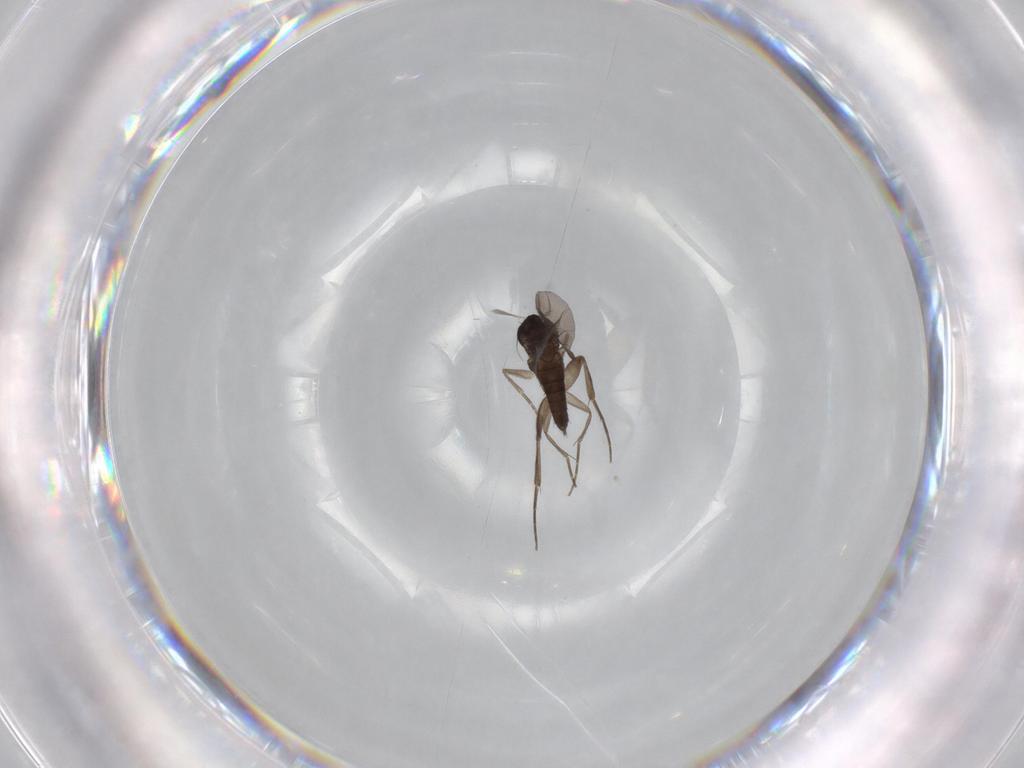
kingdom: Animalia
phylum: Arthropoda
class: Insecta
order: Diptera
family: Phoridae
